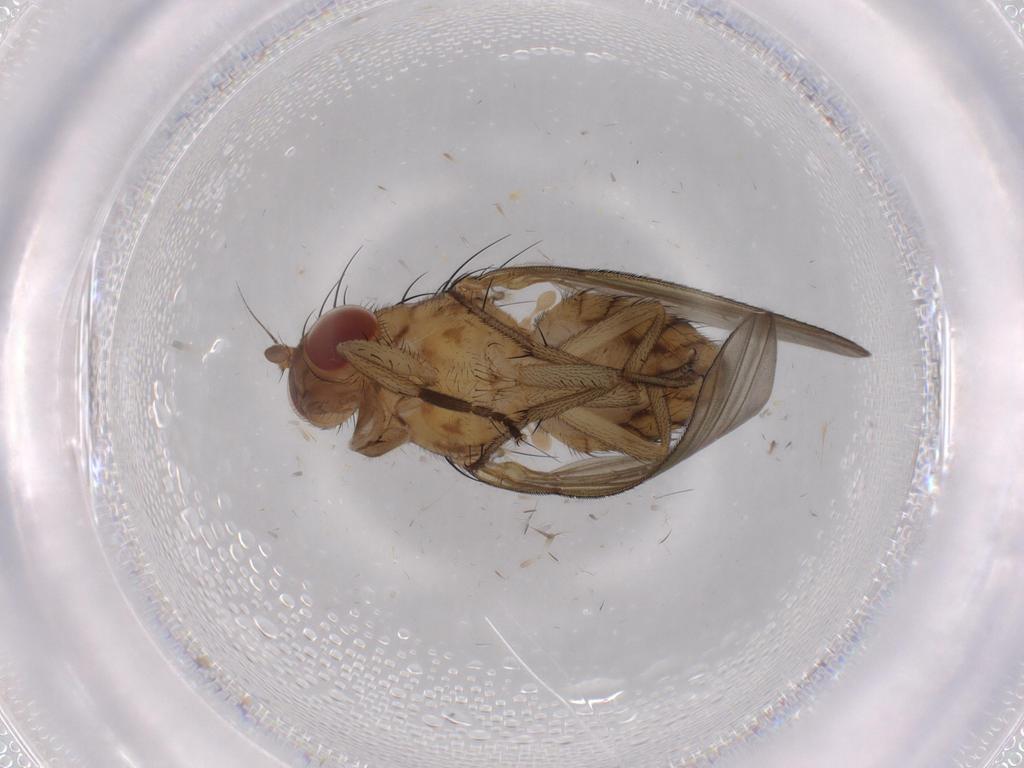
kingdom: Animalia
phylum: Arthropoda
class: Insecta
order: Diptera
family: Limoniidae
